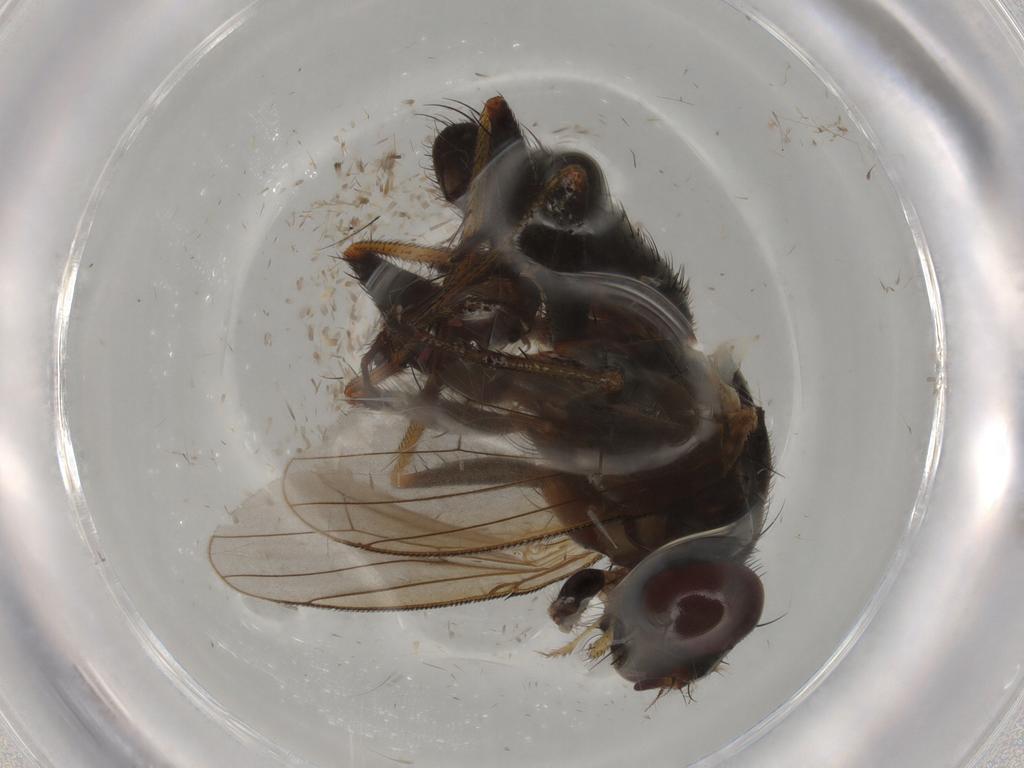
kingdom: Animalia
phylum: Arthropoda
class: Insecta
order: Diptera
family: Muscidae
